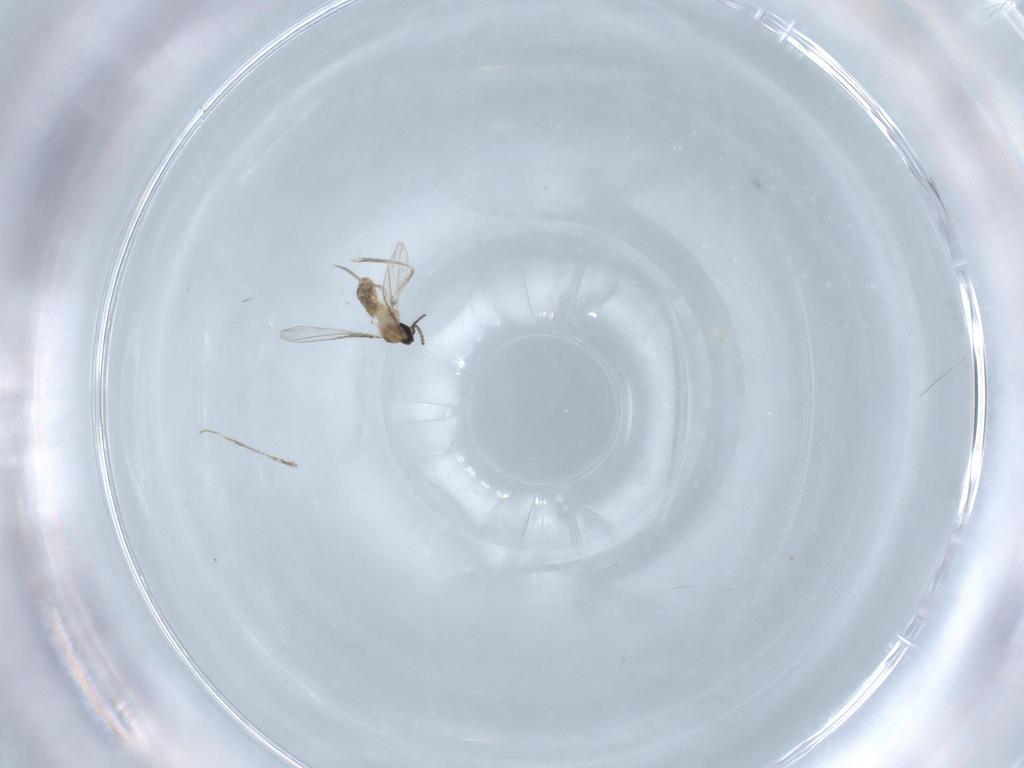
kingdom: Animalia
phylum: Arthropoda
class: Insecta
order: Diptera
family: Cecidomyiidae
